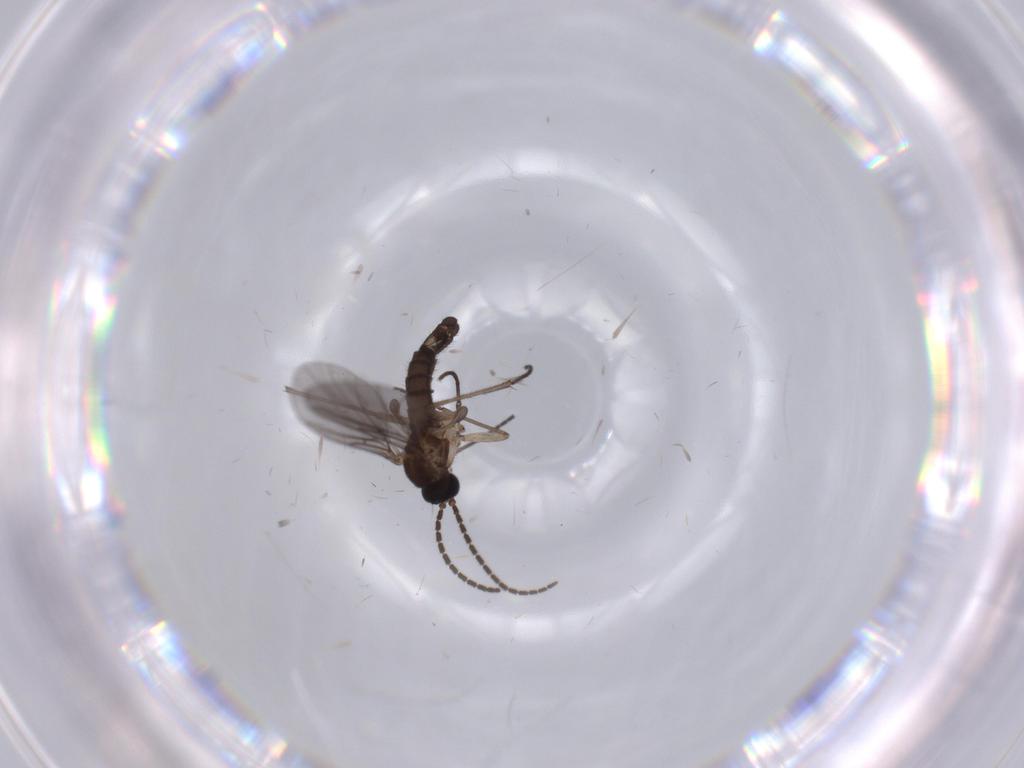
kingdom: Animalia
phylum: Arthropoda
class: Insecta
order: Diptera
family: Sciaridae
